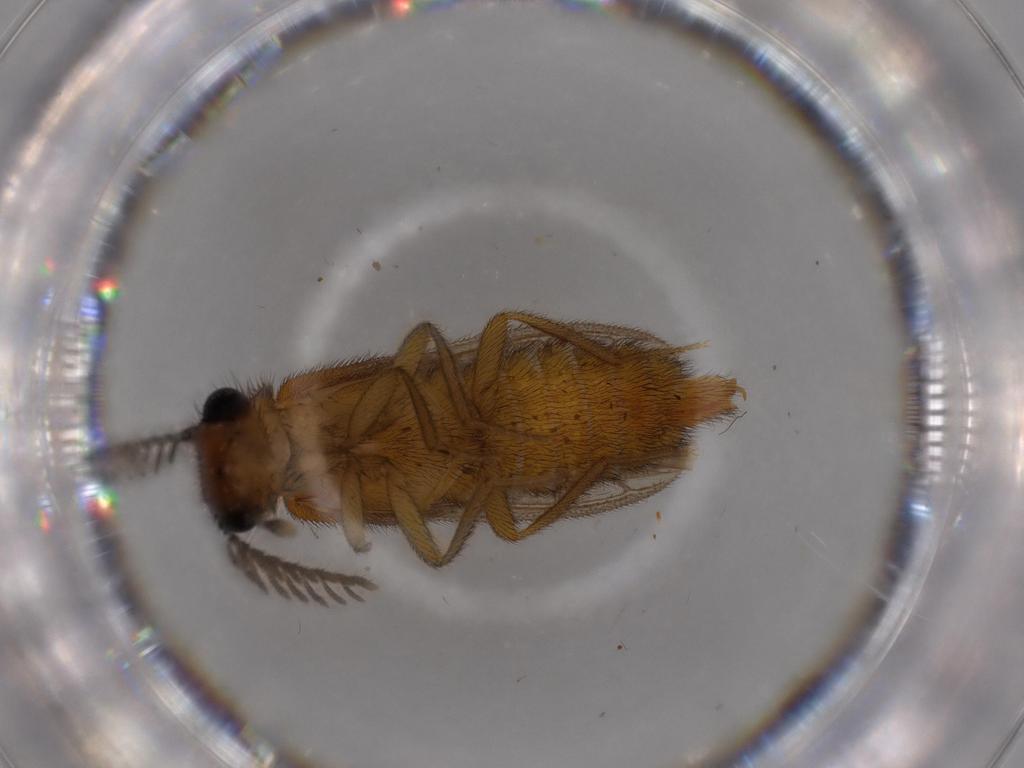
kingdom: Animalia
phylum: Arthropoda
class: Insecta
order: Coleoptera
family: Phengodidae
